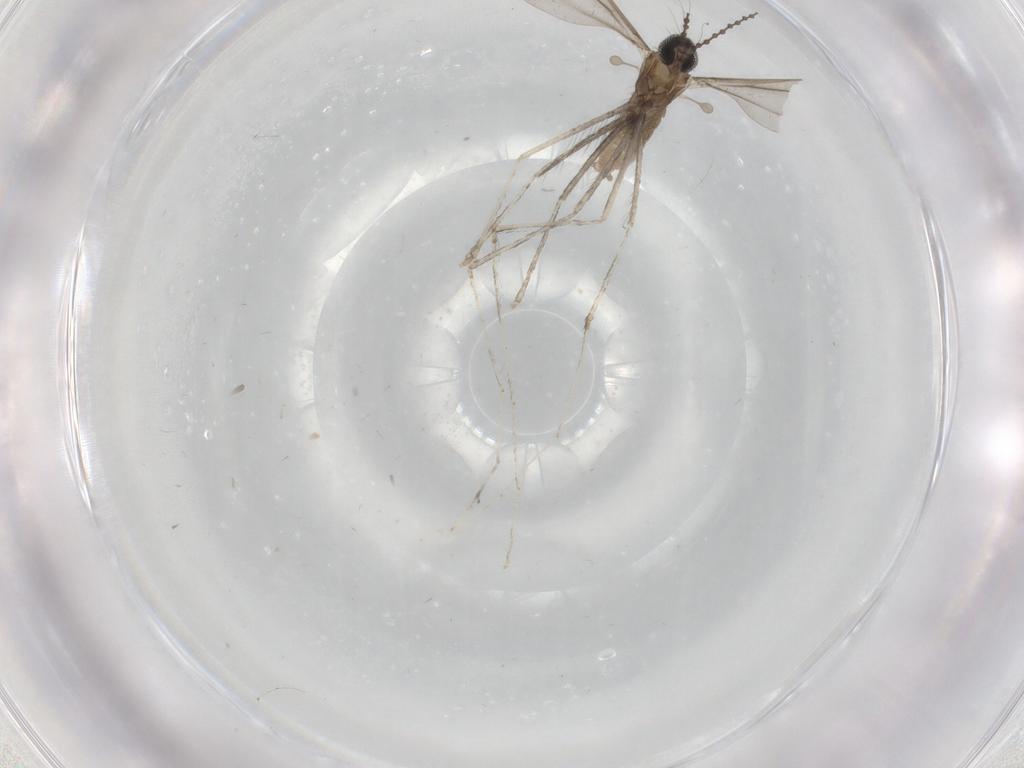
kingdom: Animalia
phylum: Arthropoda
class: Insecta
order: Diptera
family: Cecidomyiidae
